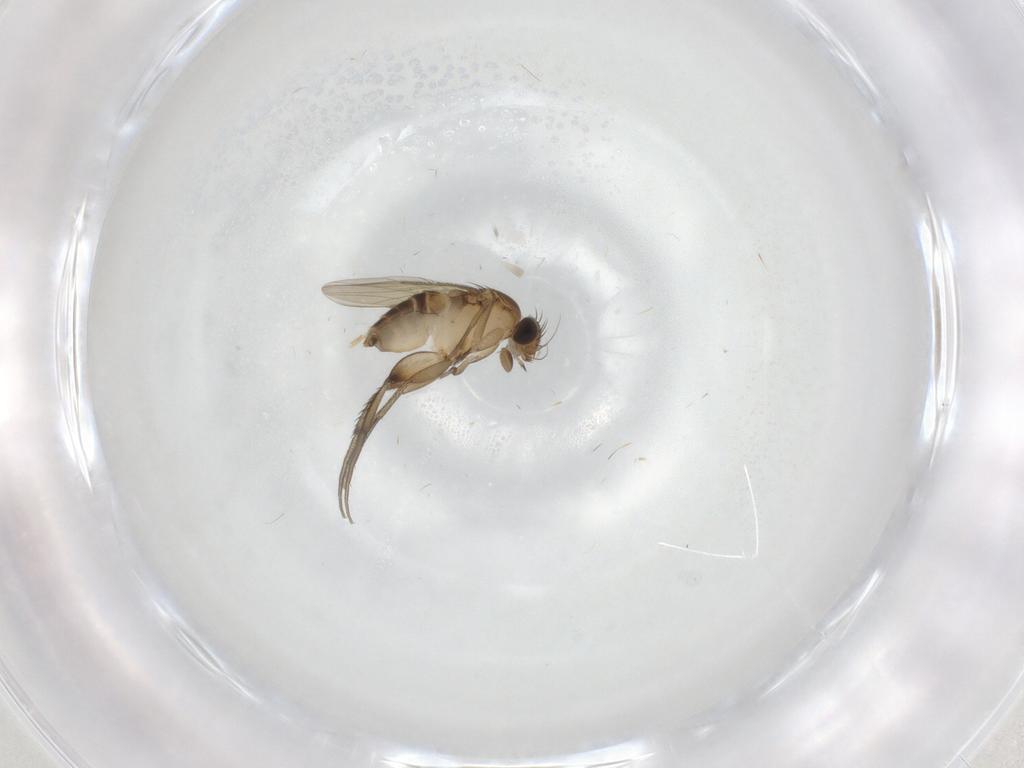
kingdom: Animalia
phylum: Arthropoda
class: Insecta
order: Diptera
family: Phoridae
